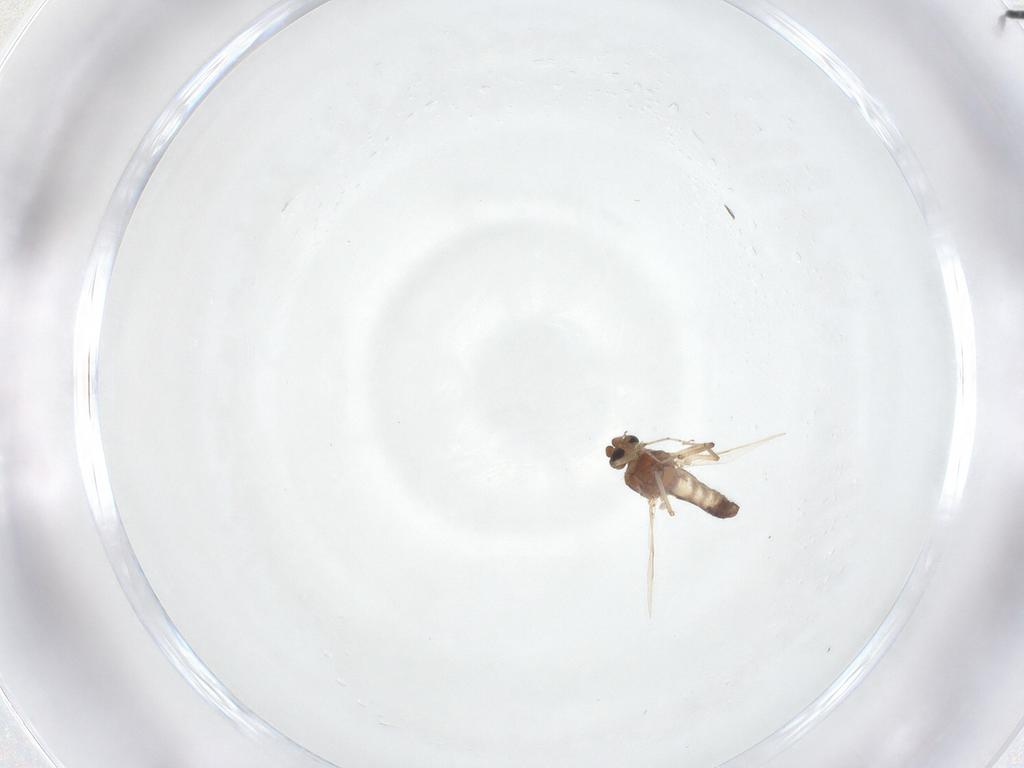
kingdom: Animalia
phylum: Arthropoda
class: Insecta
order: Diptera
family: Ceratopogonidae
